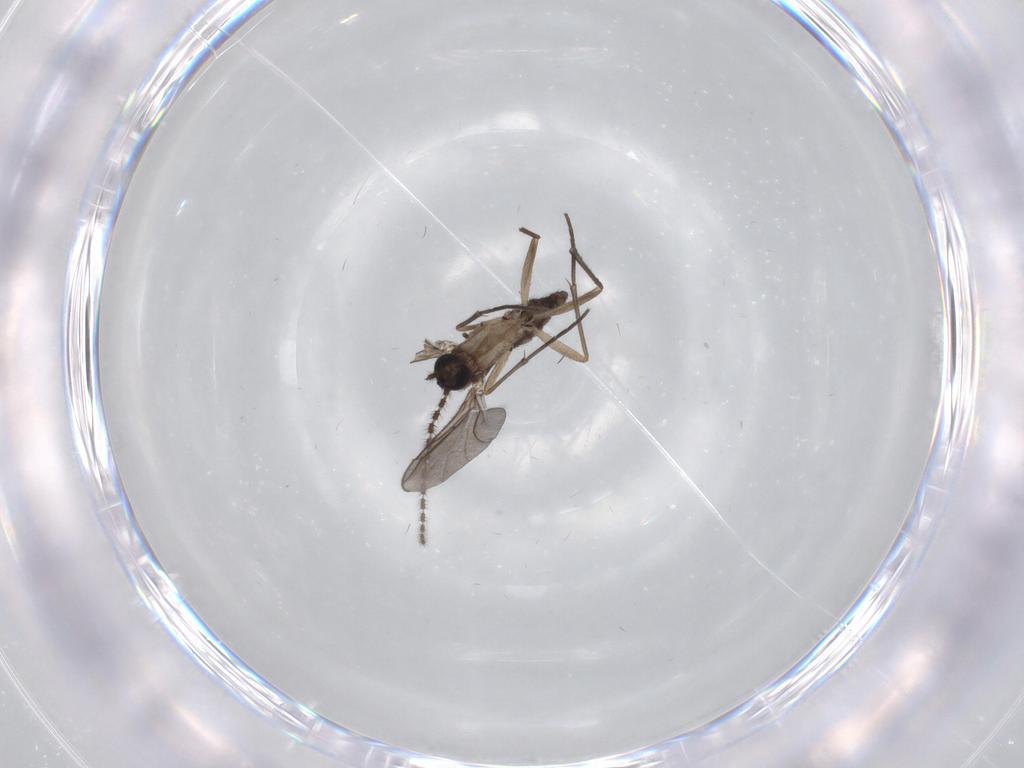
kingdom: Animalia
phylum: Arthropoda
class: Insecta
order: Diptera
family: Sciaridae
